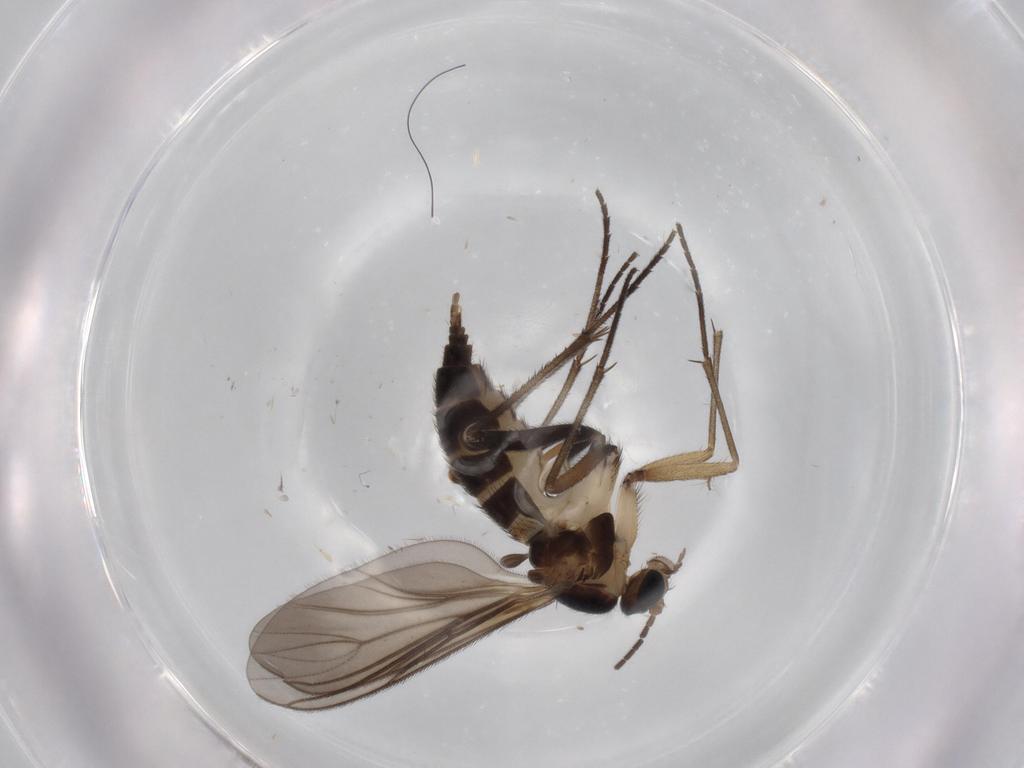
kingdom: Animalia
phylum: Arthropoda
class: Insecta
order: Diptera
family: Sciaridae
